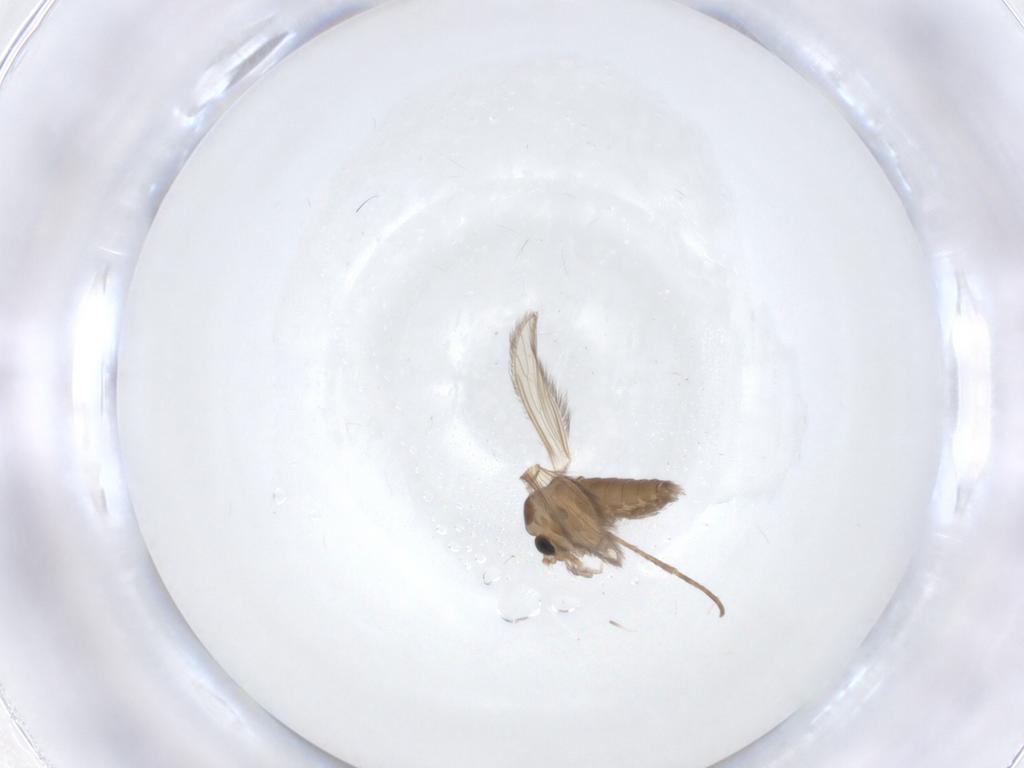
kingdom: Animalia
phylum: Arthropoda
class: Insecta
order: Diptera
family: Psychodidae
